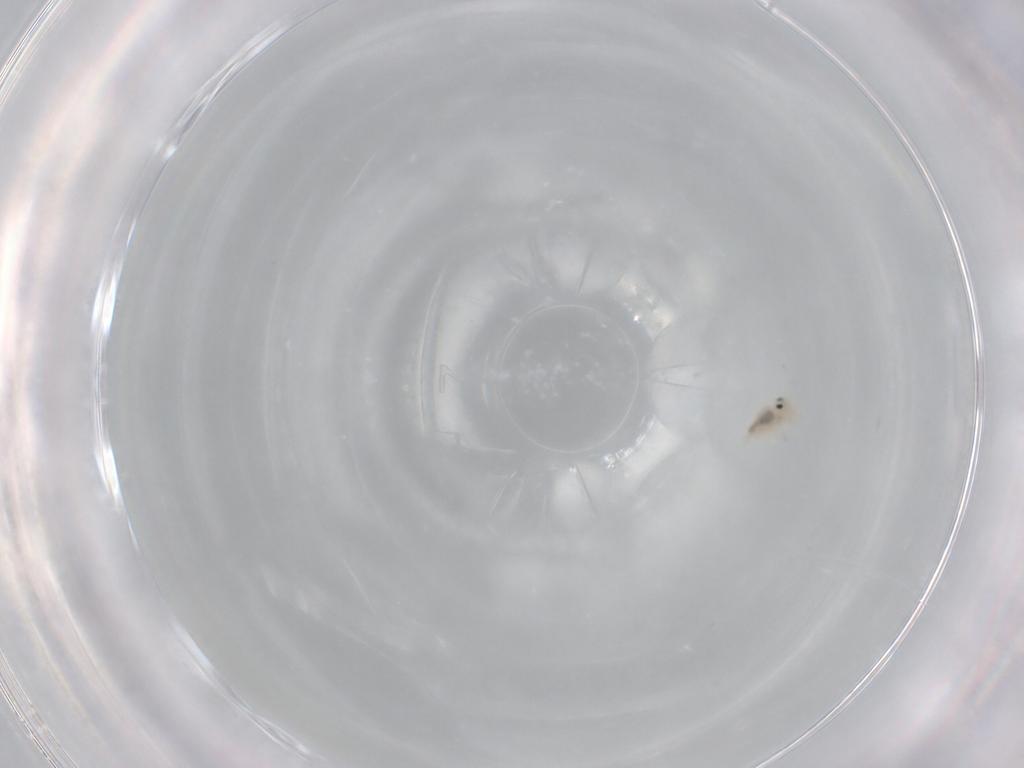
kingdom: Animalia
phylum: Arthropoda
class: Collembola
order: Symphypleona
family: Bourletiellidae
